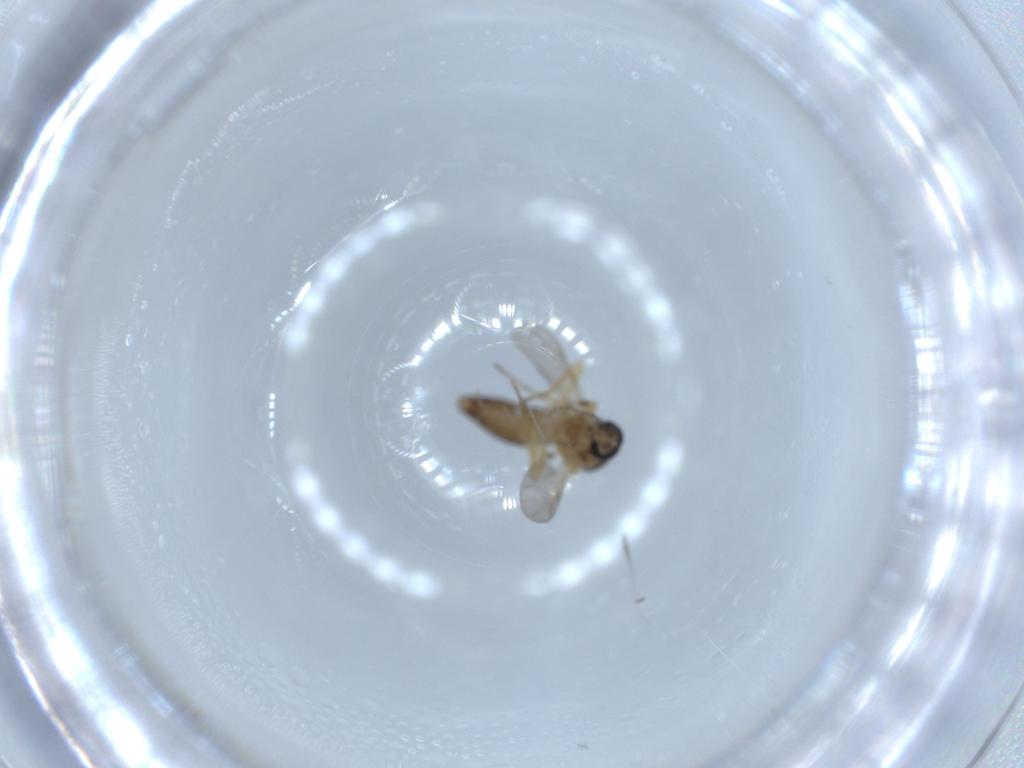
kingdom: Animalia
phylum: Arthropoda
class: Insecta
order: Diptera
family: Ceratopogonidae
